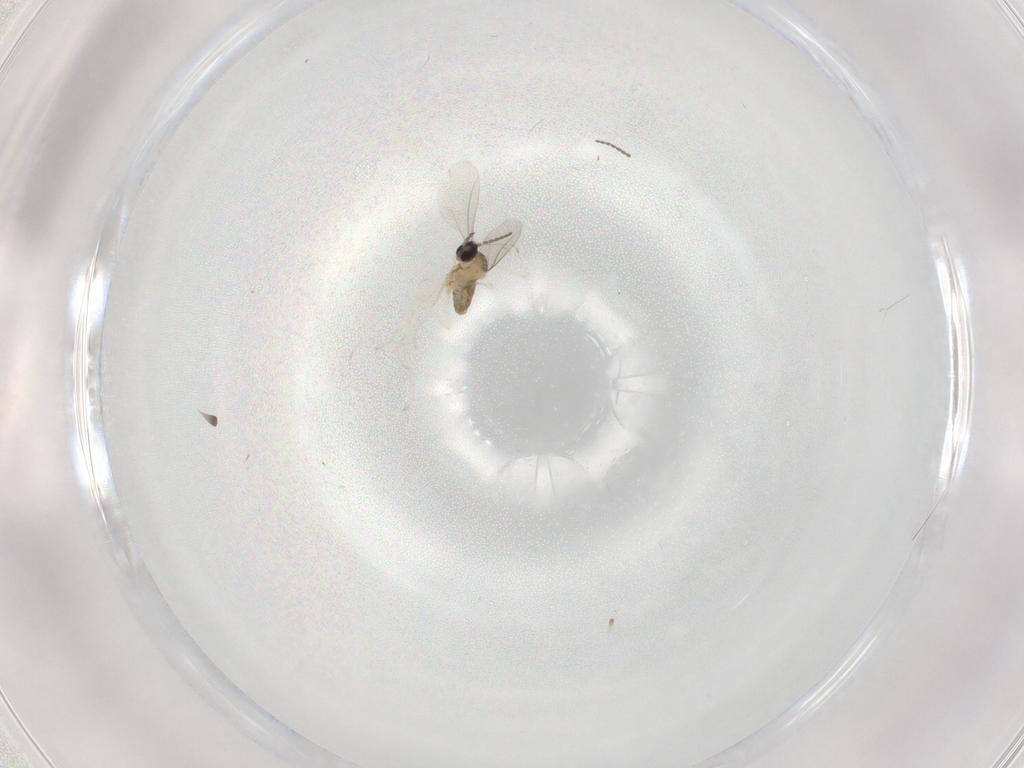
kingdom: Animalia
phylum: Arthropoda
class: Insecta
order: Diptera
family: Cecidomyiidae
